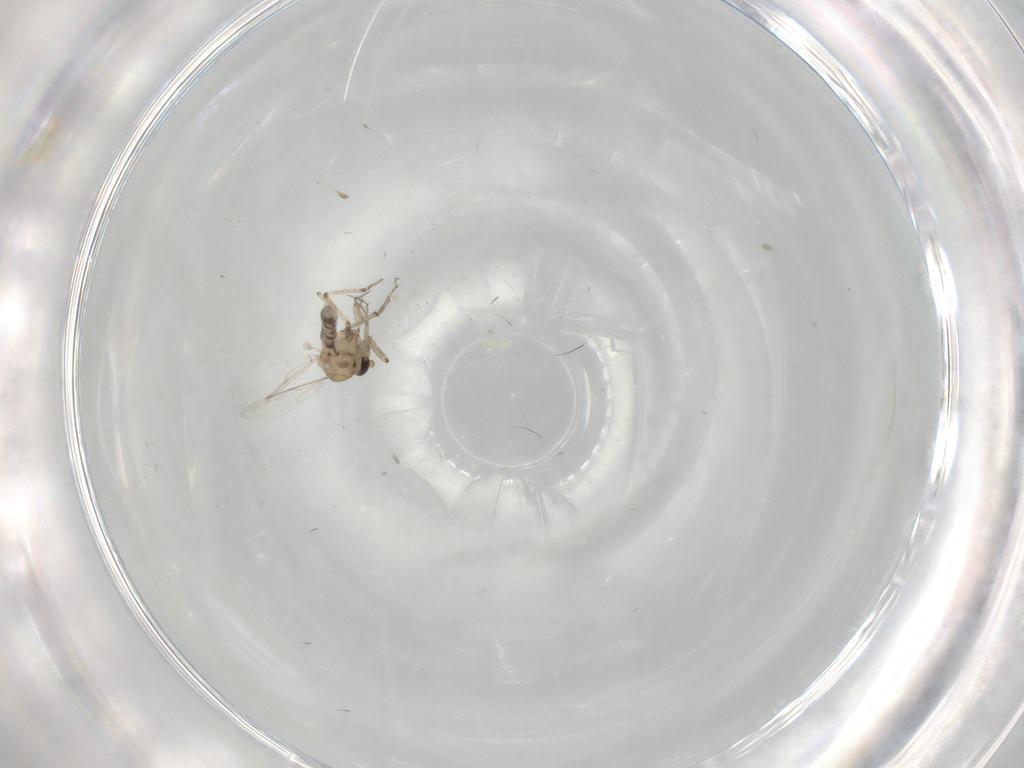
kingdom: Animalia
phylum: Arthropoda
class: Insecta
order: Diptera
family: Ceratopogonidae
